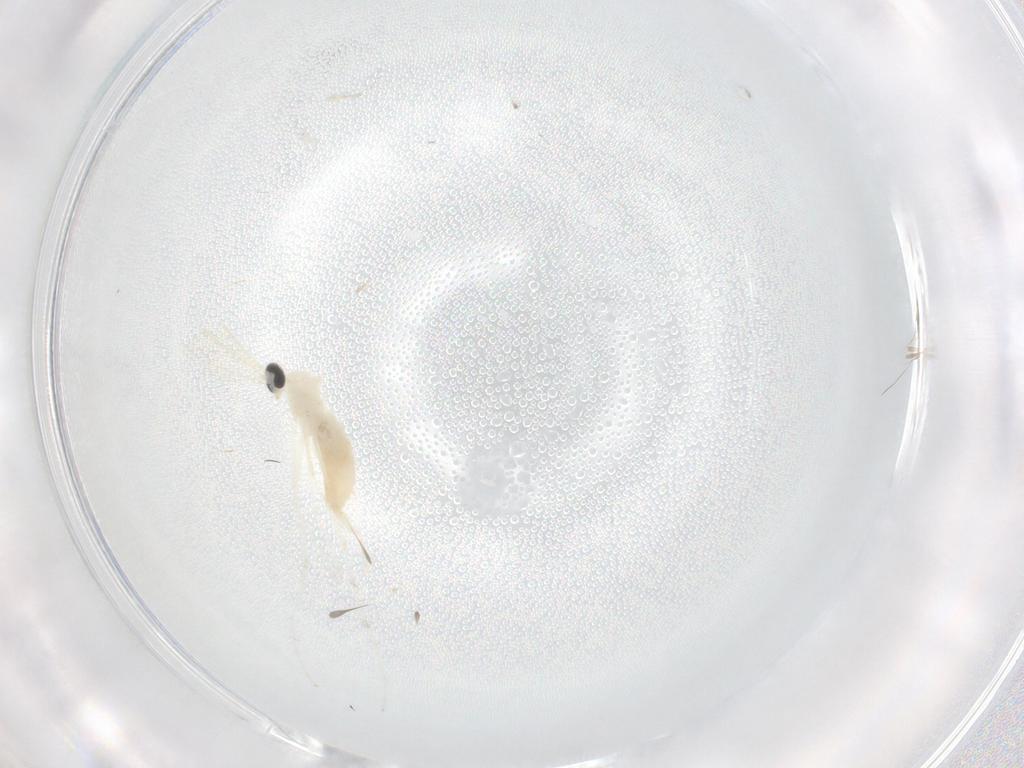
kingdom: Animalia
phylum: Arthropoda
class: Insecta
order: Diptera
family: Cecidomyiidae
